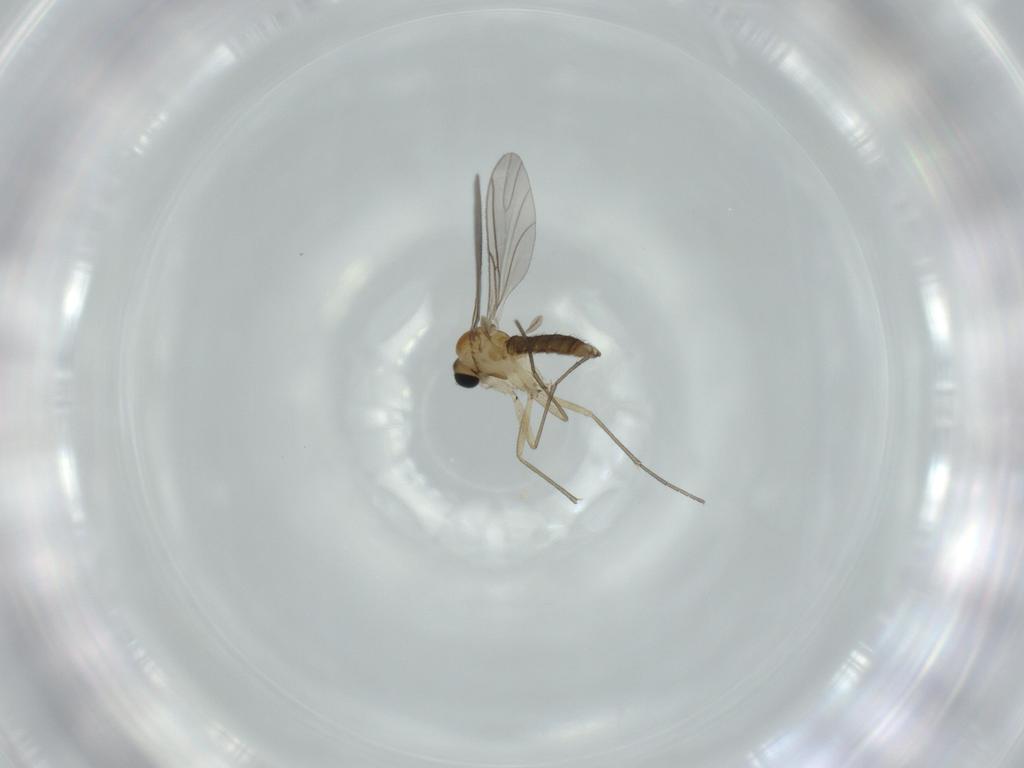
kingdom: Animalia
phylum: Arthropoda
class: Insecta
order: Diptera
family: Sciaridae
